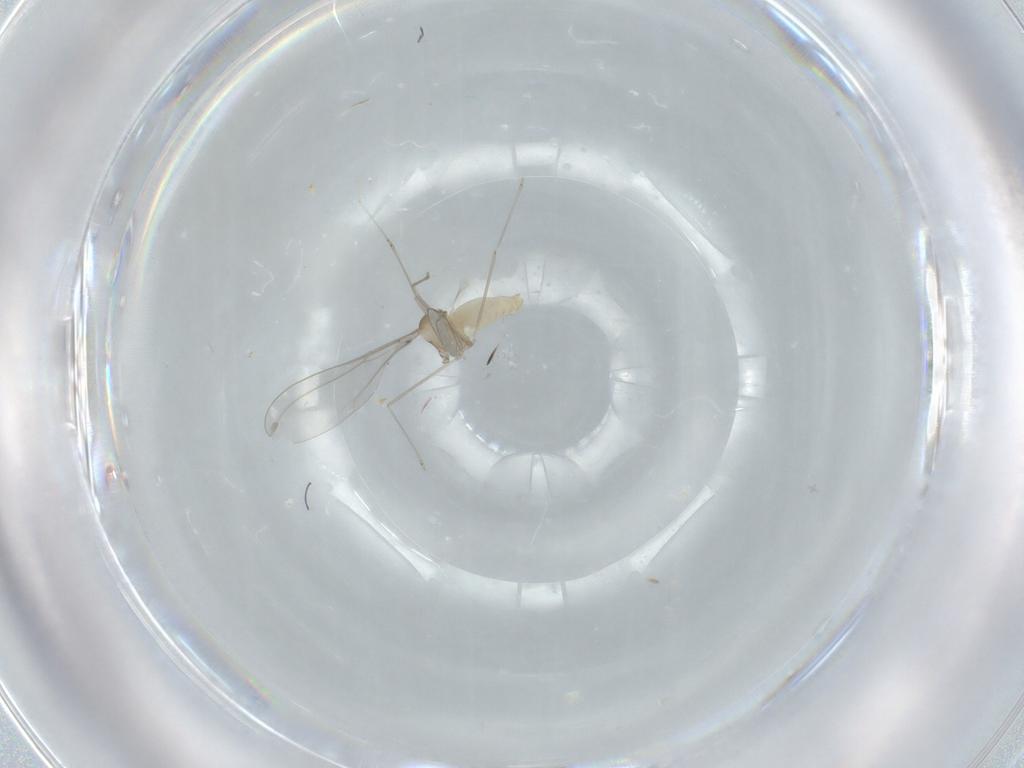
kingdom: Animalia
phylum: Arthropoda
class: Insecta
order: Diptera
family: Cecidomyiidae
